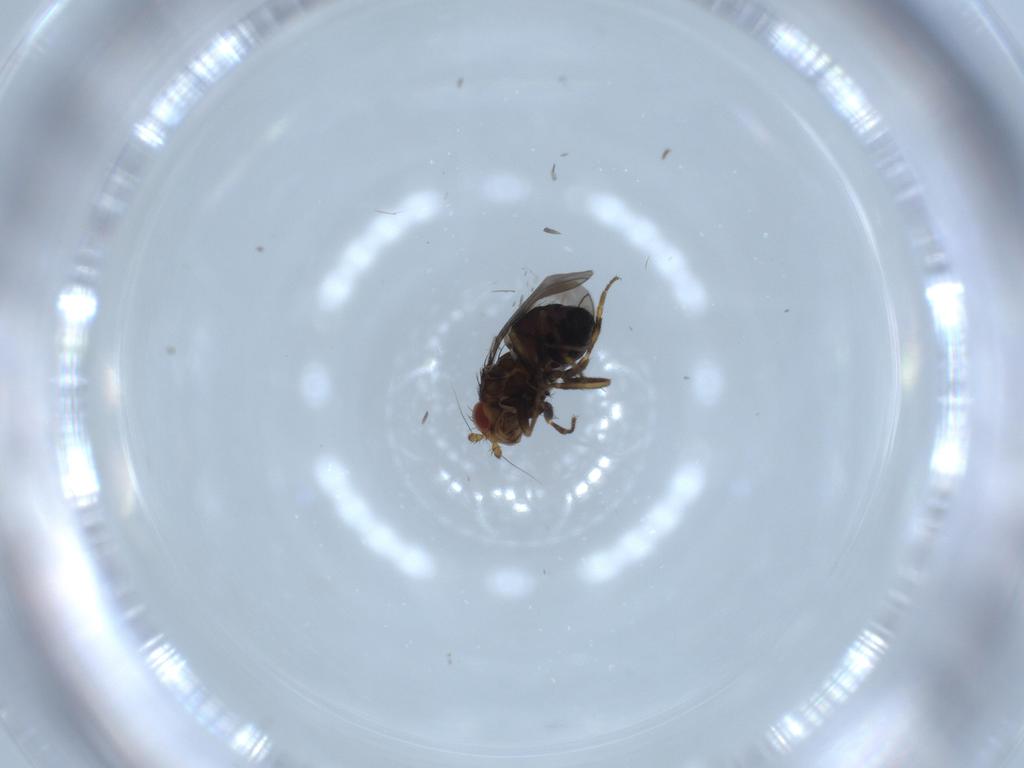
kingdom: Animalia
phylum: Arthropoda
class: Insecta
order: Diptera
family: Sphaeroceridae
